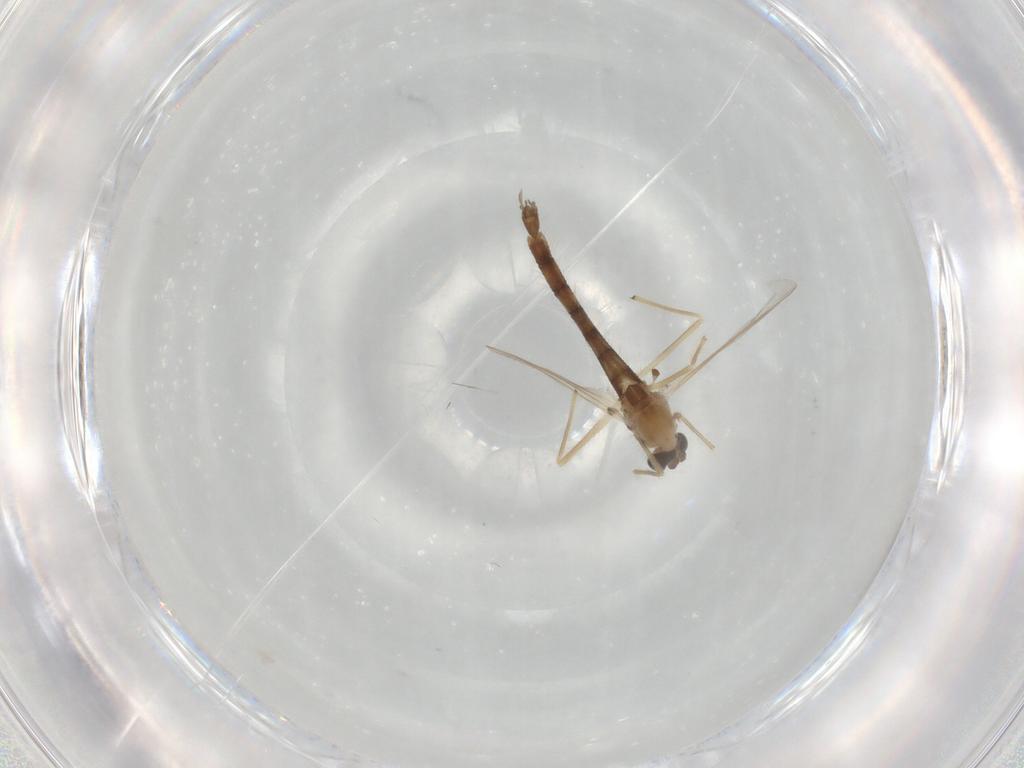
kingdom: Animalia
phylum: Arthropoda
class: Insecta
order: Diptera
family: Chironomidae
